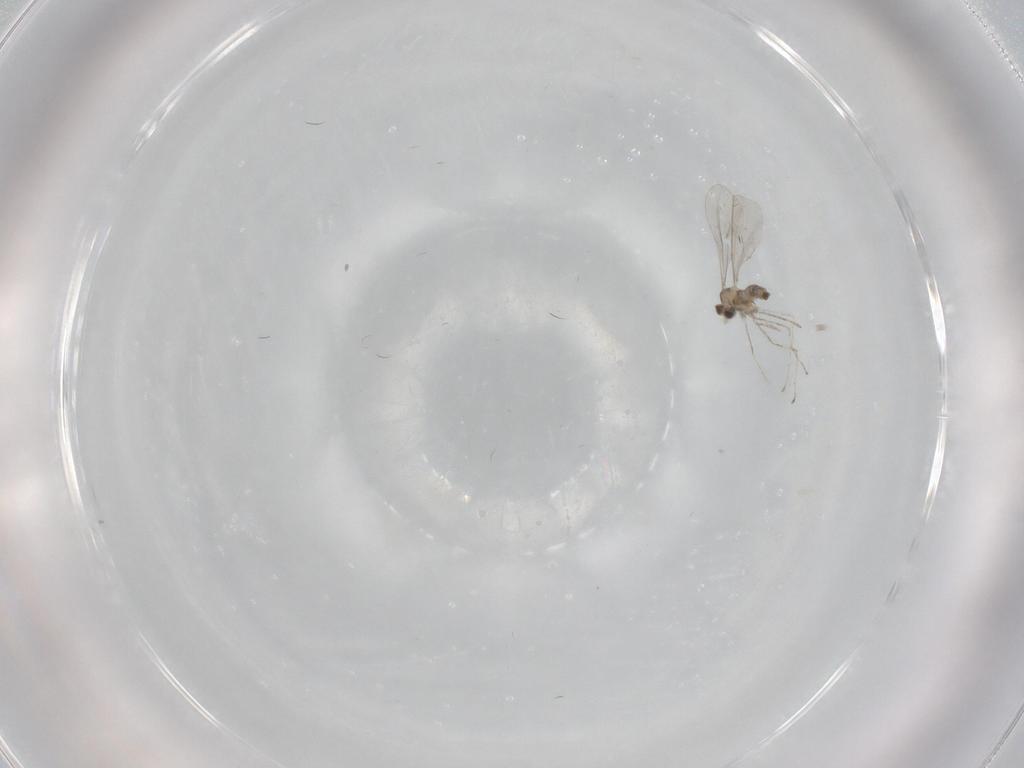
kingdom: Animalia
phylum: Arthropoda
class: Insecta
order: Diptera
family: Cecidomyiidae
